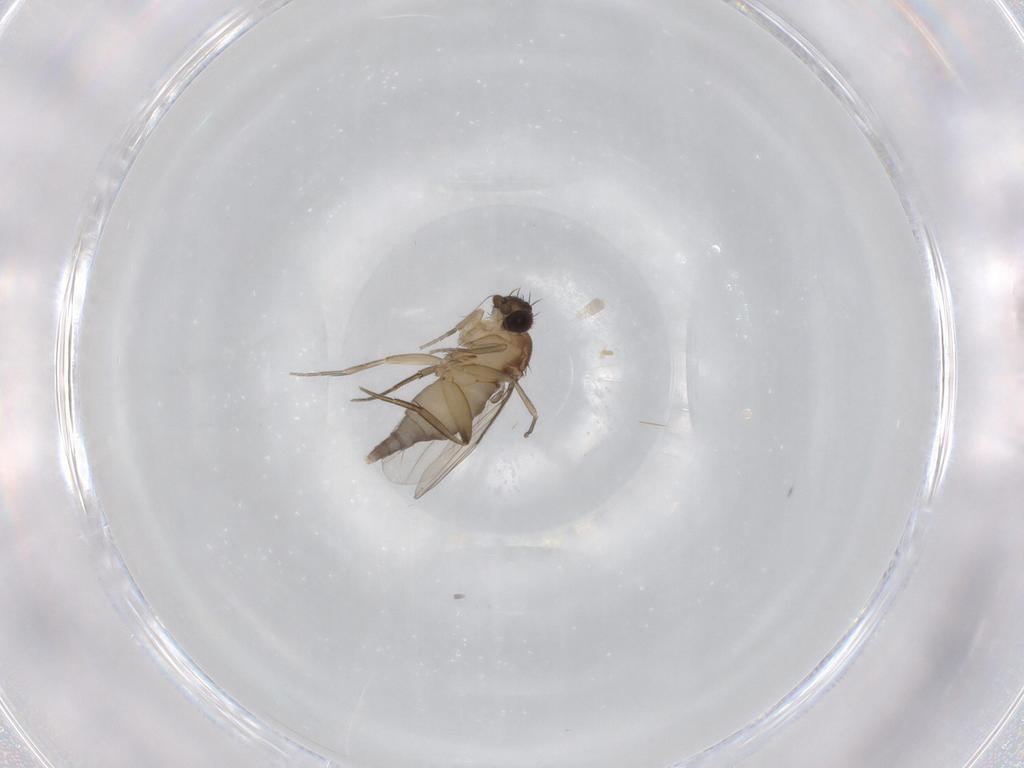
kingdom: Animalia
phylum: Arthropoda
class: Insecta
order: Diptera
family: Phoridae
